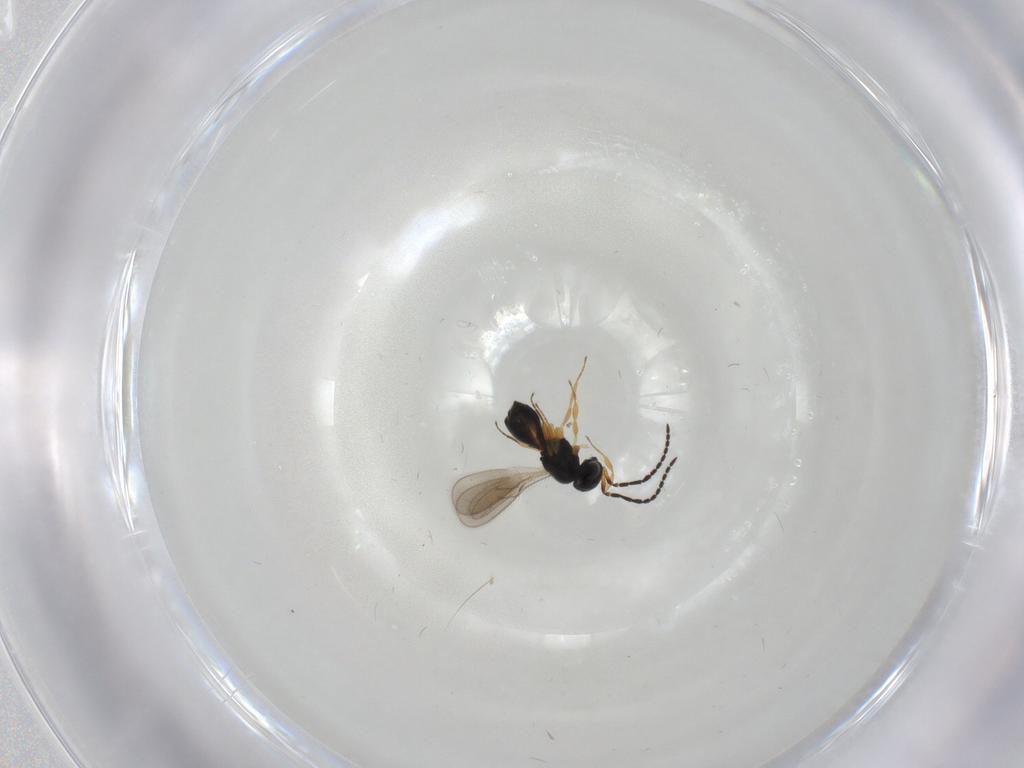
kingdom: Animalia
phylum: Arthropoda
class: Insecta
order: Hymenoptera
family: Scelionidae
